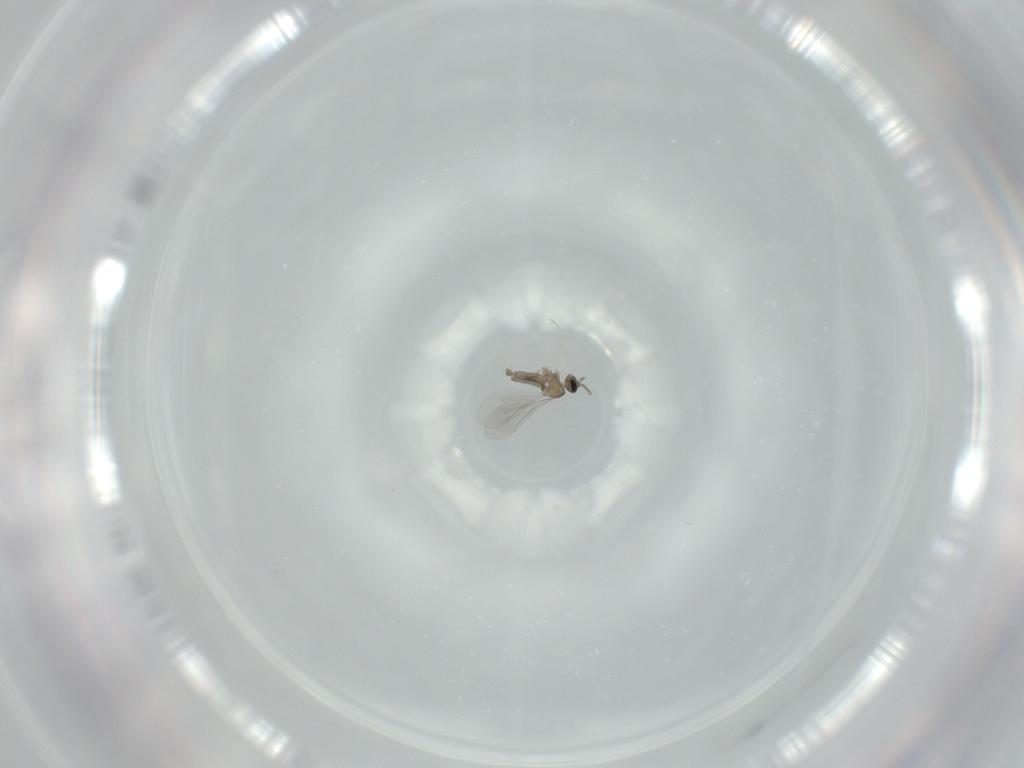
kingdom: Animalia
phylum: Arthropoda
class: Insecta
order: Diptera
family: Cecidomyiidae
